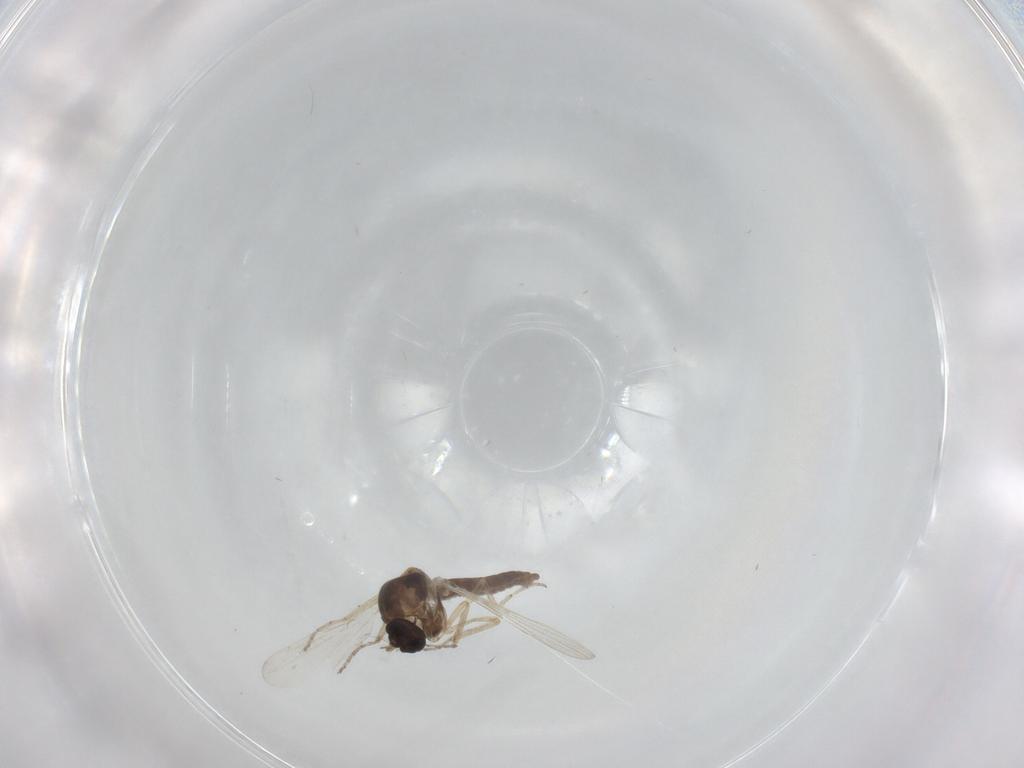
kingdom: Animalia
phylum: Arthropoda
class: Insecta
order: Diptera
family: Ceratopogonidae
